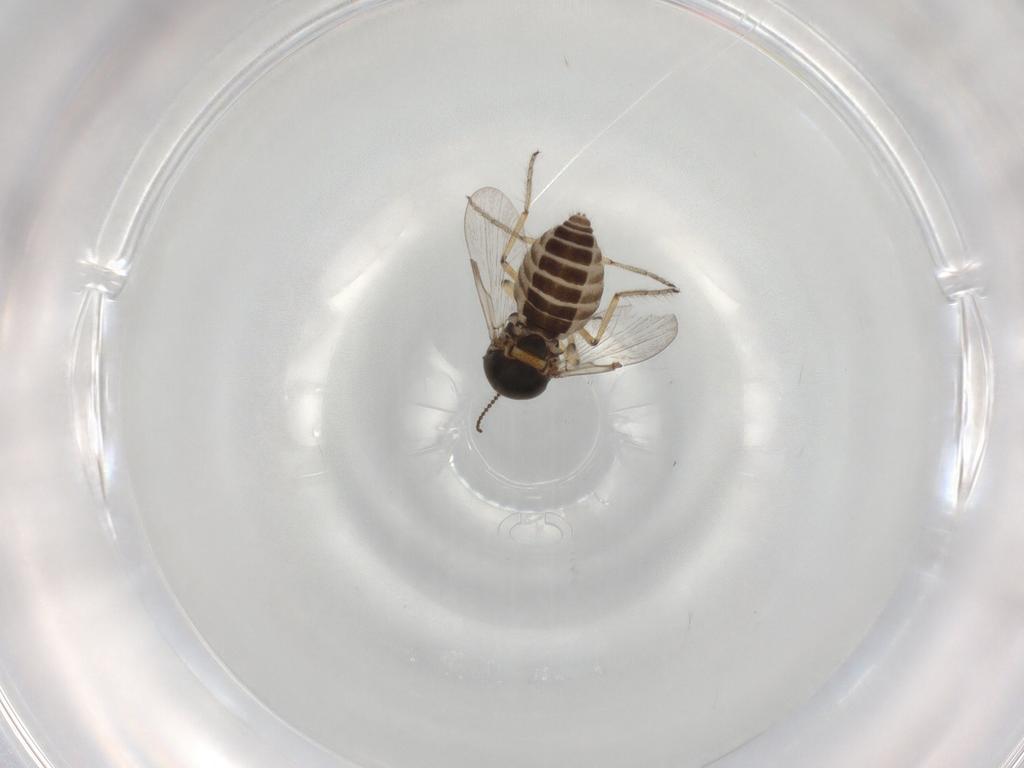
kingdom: Animalia
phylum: Arthropoda
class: Insecta
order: Diptera
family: Ceratopogonidae
